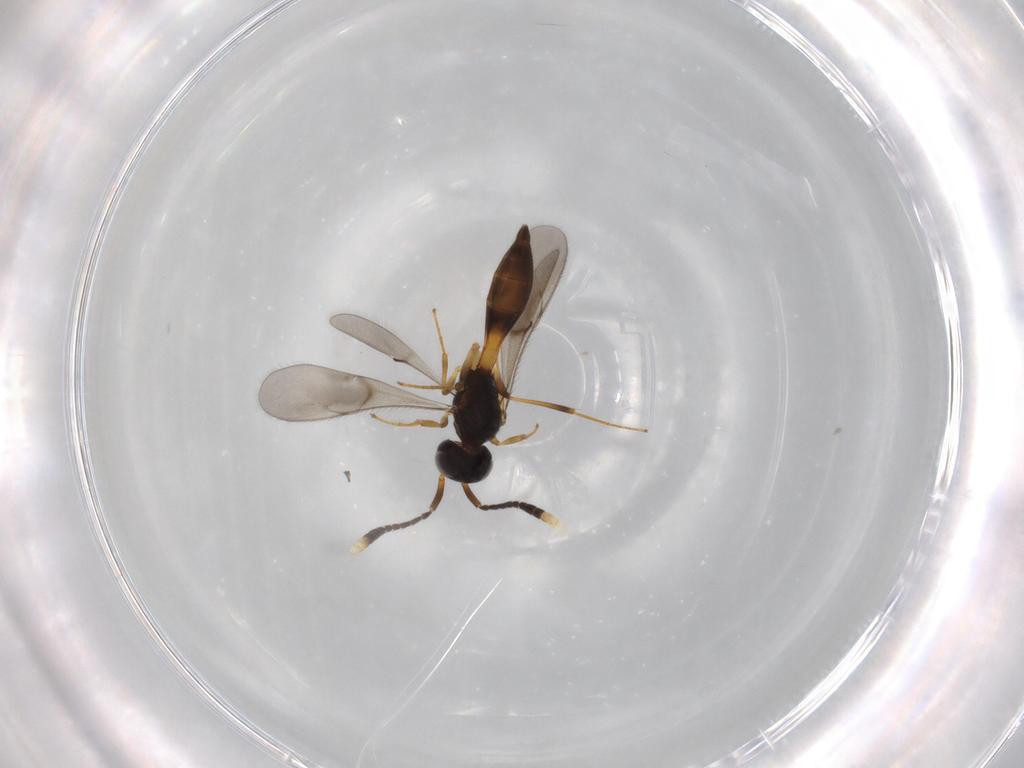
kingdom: Animalia
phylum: Arthropoda
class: Insecta
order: Hymenoptera
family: Scelionidae
